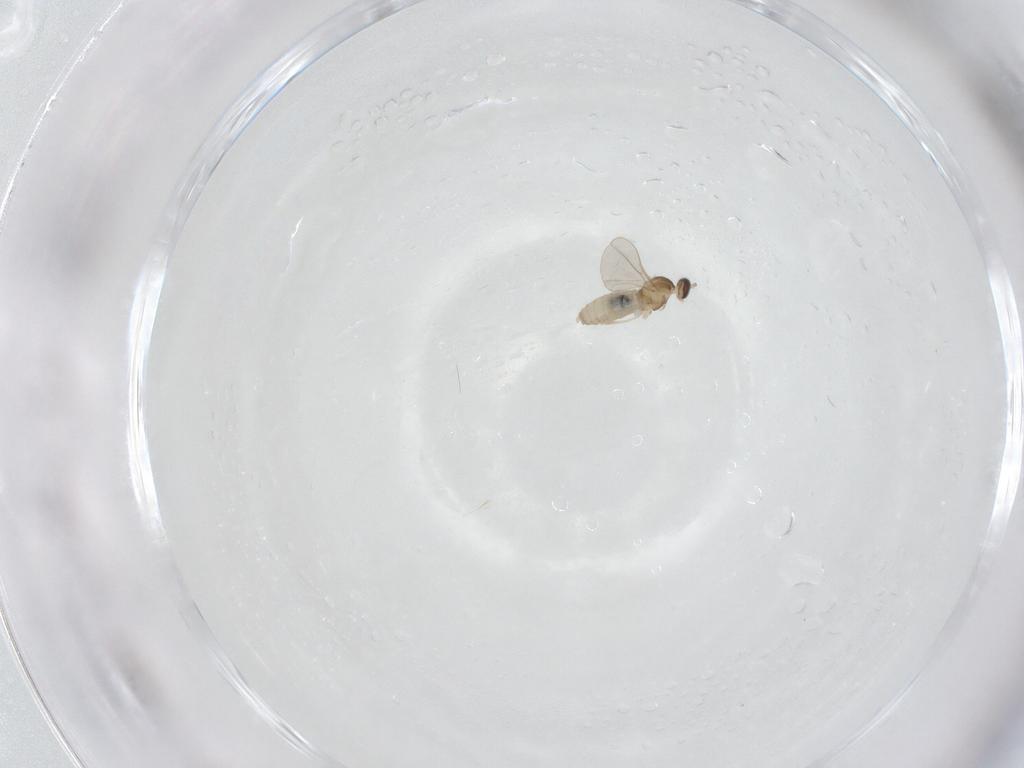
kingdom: Animalia
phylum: Arthropoda
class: Insecta
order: Diptera
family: Cecidomyiidae
